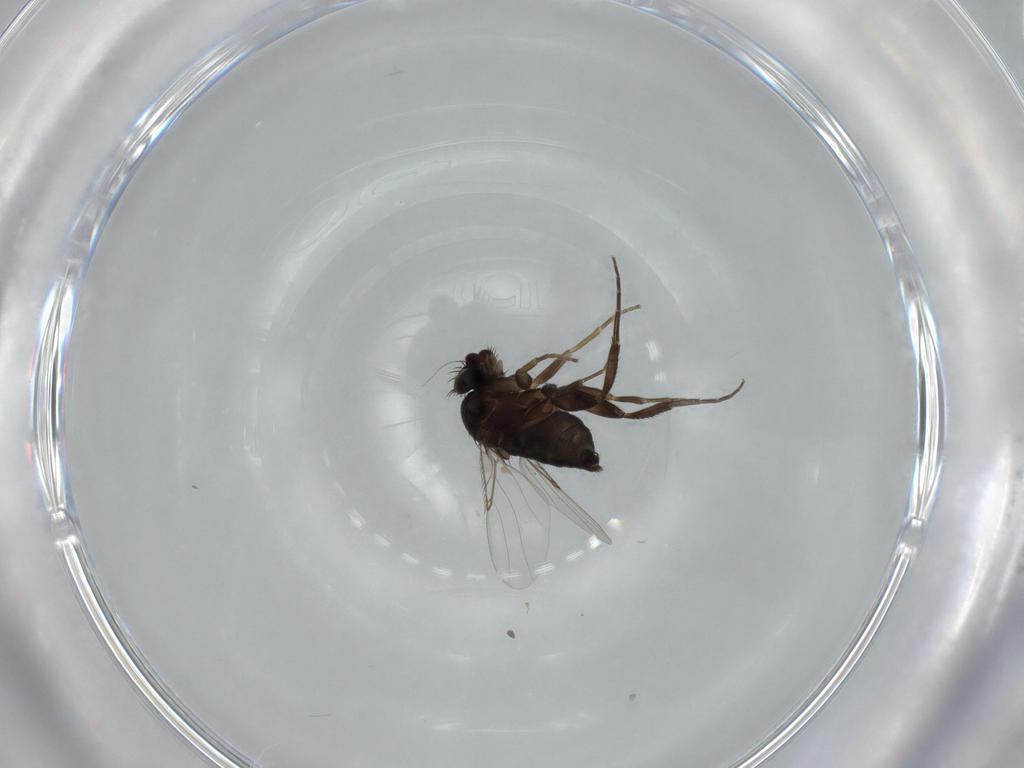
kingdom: Animalia
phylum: Arthropoda
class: Insecta
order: Diptera
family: Phoridae
